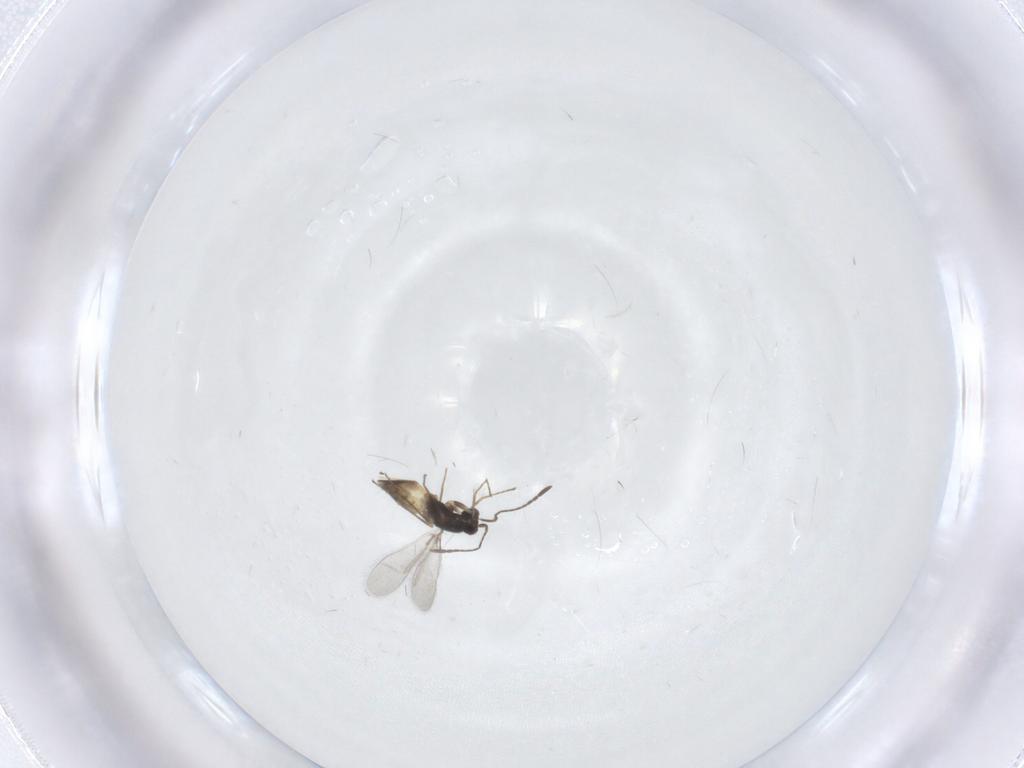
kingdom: Animalia
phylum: Arthropoda
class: Insecta
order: Hymenoptera
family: Mymaridae
